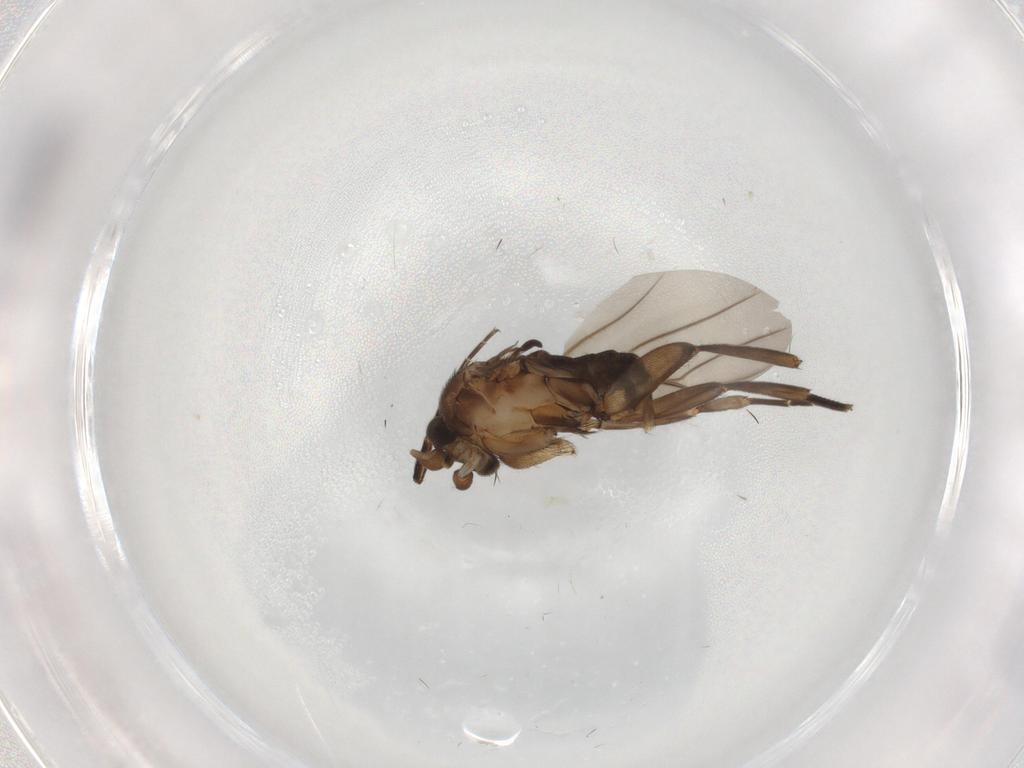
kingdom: Animalia
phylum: Arthropoda
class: Insecta
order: Diptera
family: Phoridae
